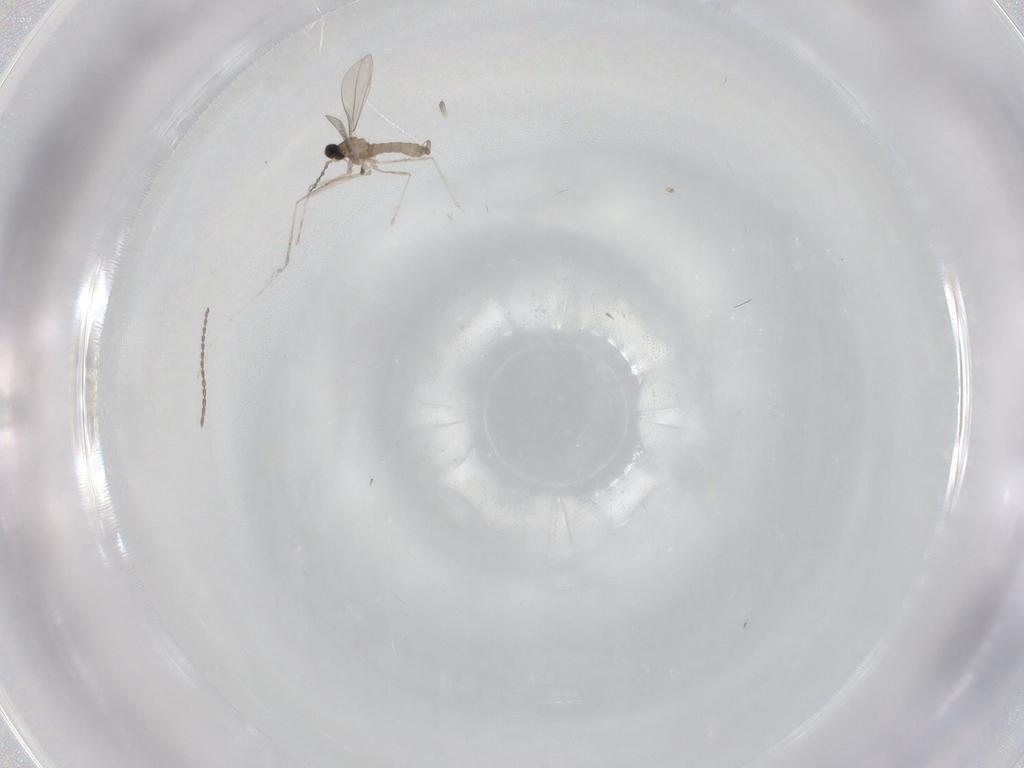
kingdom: Animalia
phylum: Arthropoda
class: Insecta
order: Diptera
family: Cecidomyiidae
